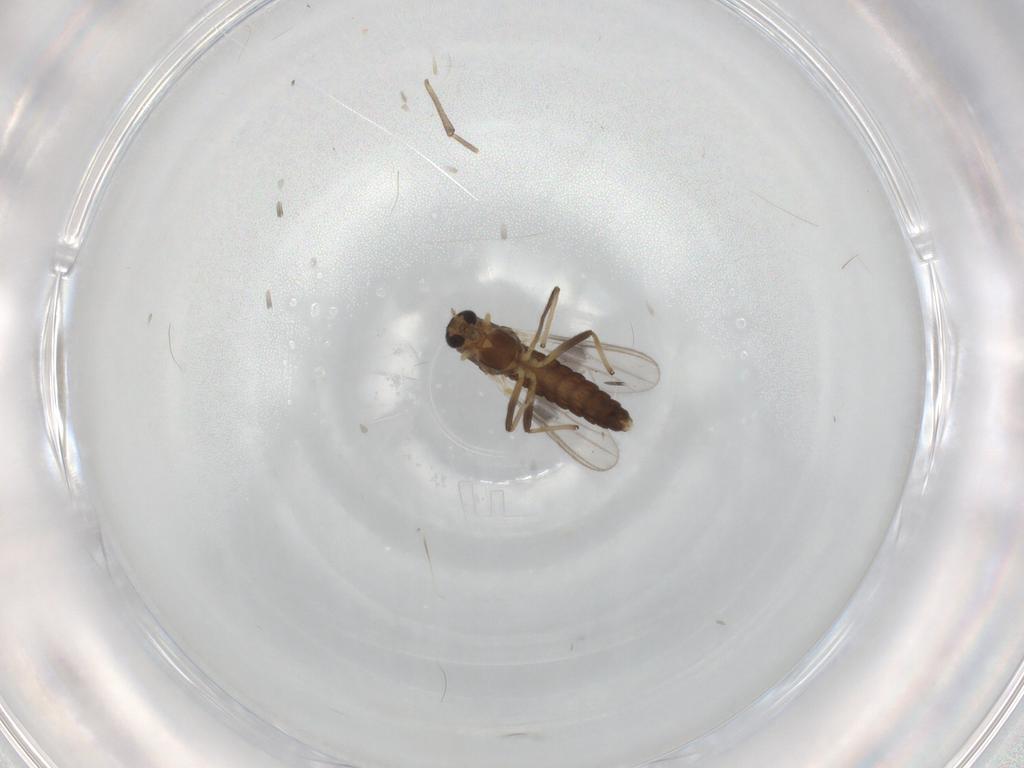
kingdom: Animalia
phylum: Arthropoda
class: Insecta
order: Diptera
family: Chironomidae
